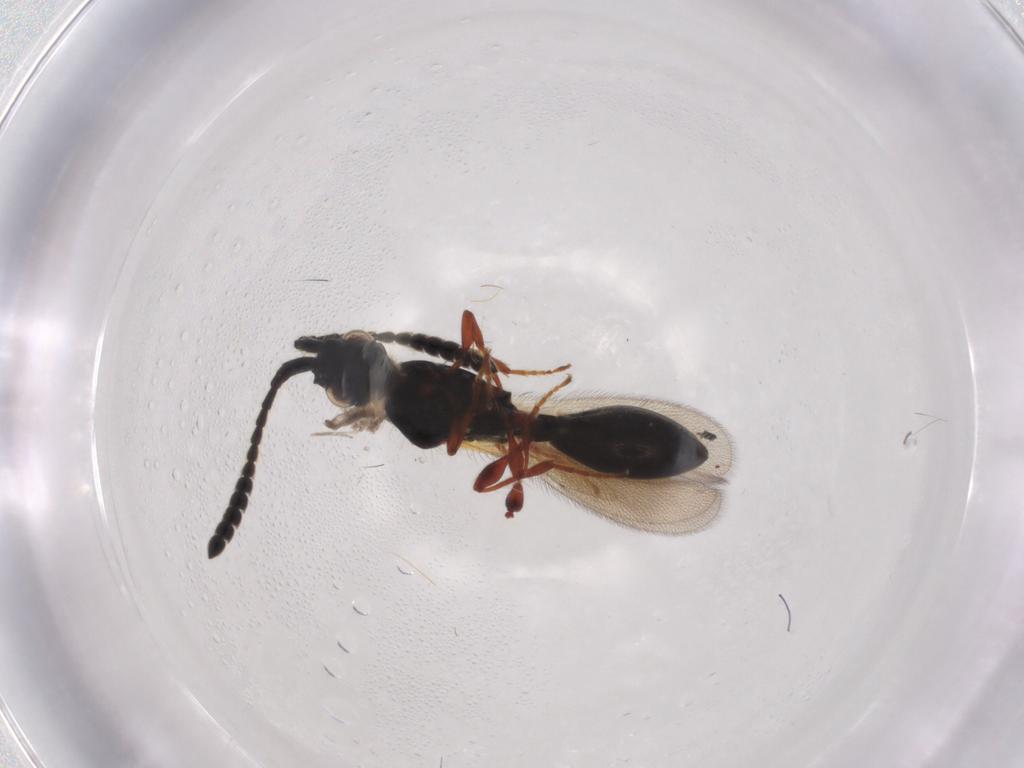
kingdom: Animalia
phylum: Arthropoda
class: Insecta
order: Hymenoptera
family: Diapriidae
